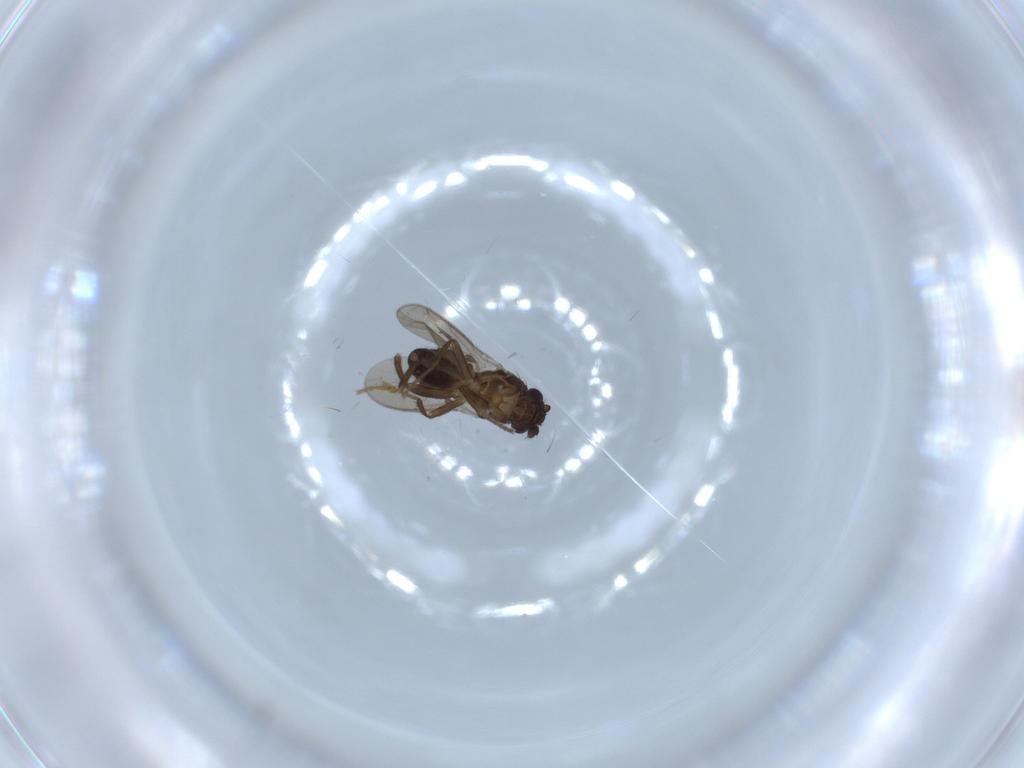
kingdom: Animalia
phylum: Arthropoda
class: Insecta
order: Diptera
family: Sphaeroceridae
